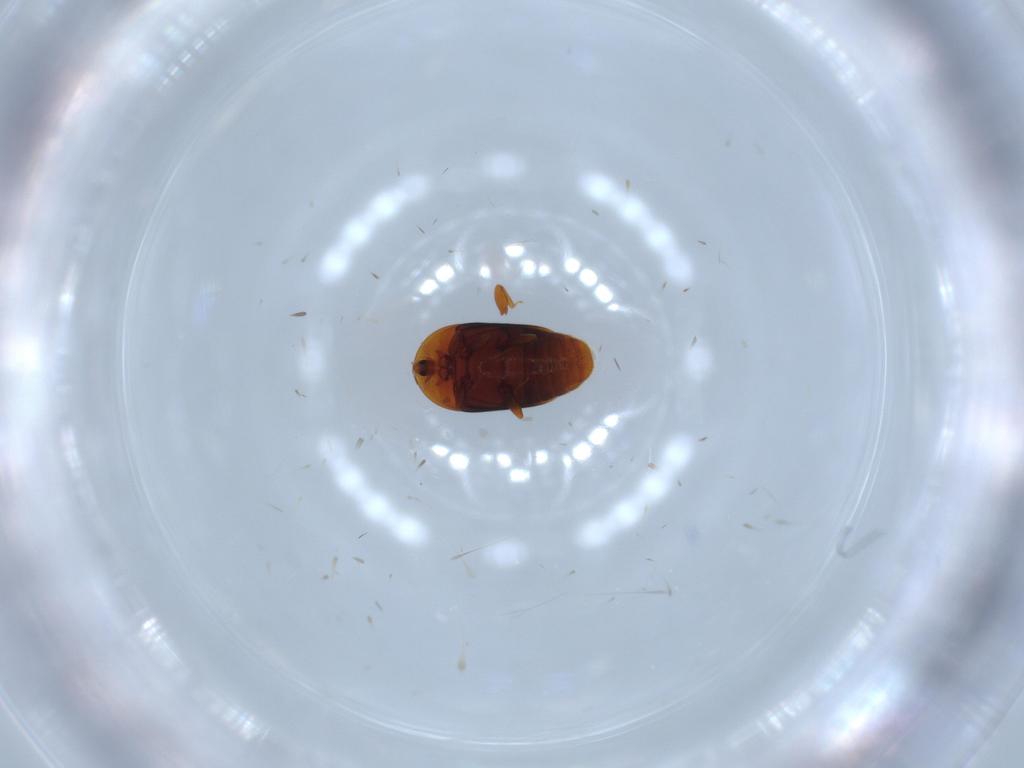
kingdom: Animalia
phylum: Arthropoda
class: Insecta
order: Coleoptera
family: Corylophidae
